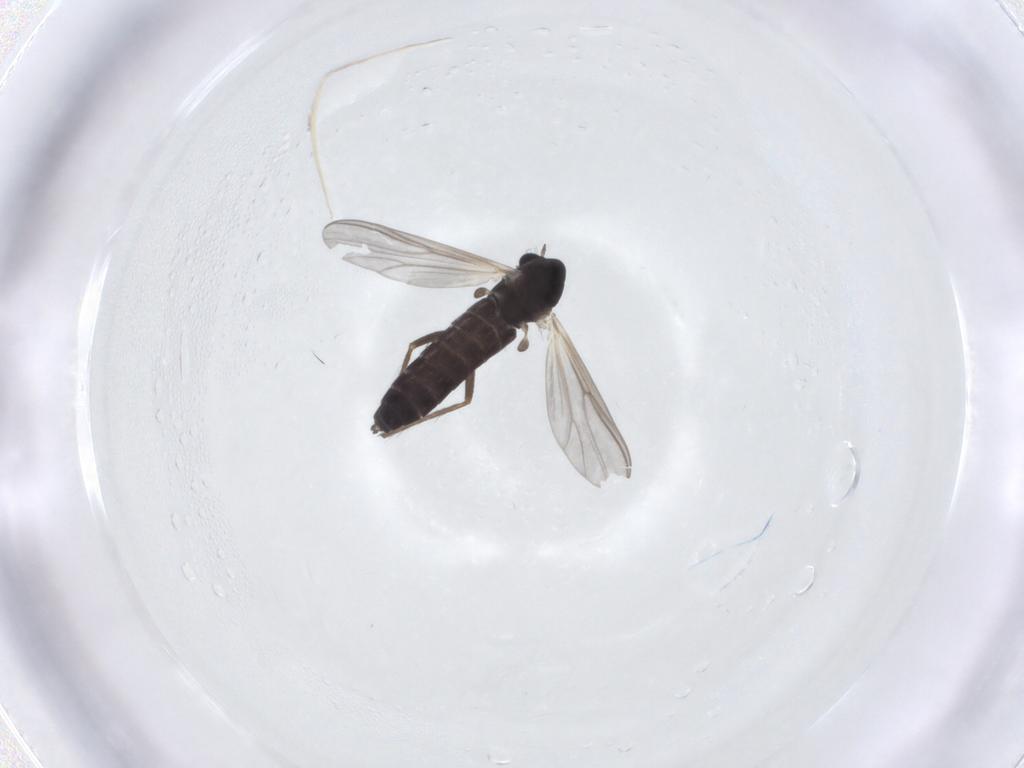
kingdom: Animalia
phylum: Arthropoda
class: Insecta
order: Diptera
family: Chironomidae
